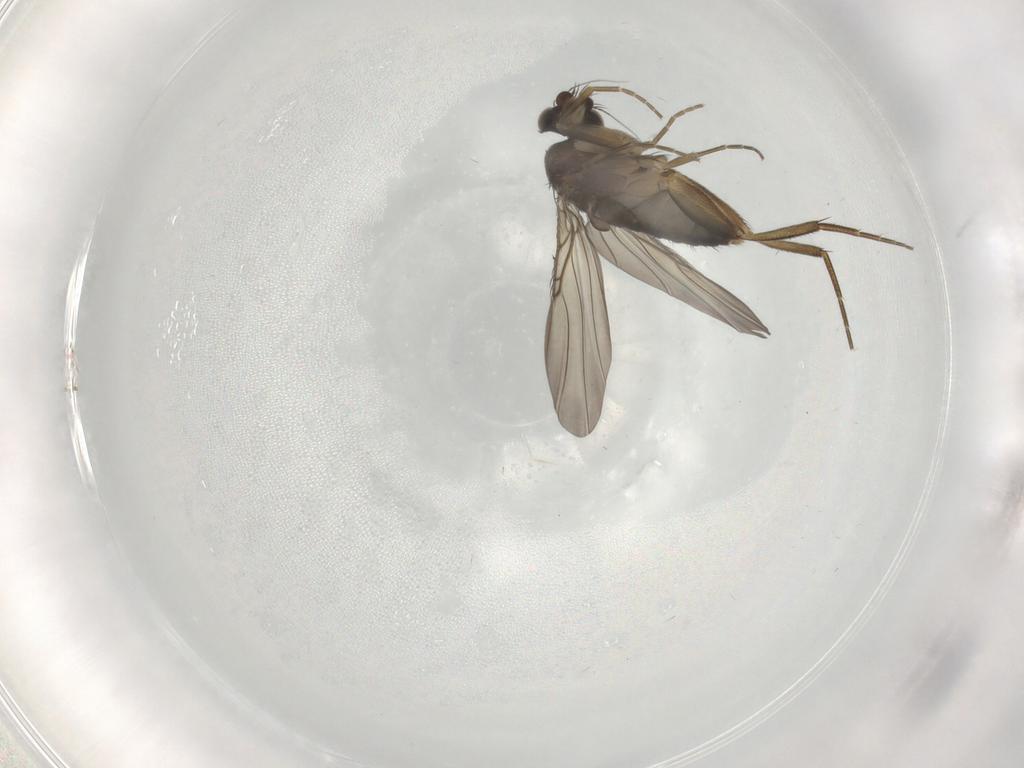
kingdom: Animalia
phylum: Arthropoda
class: Insecta
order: Diptera
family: Phoridae
